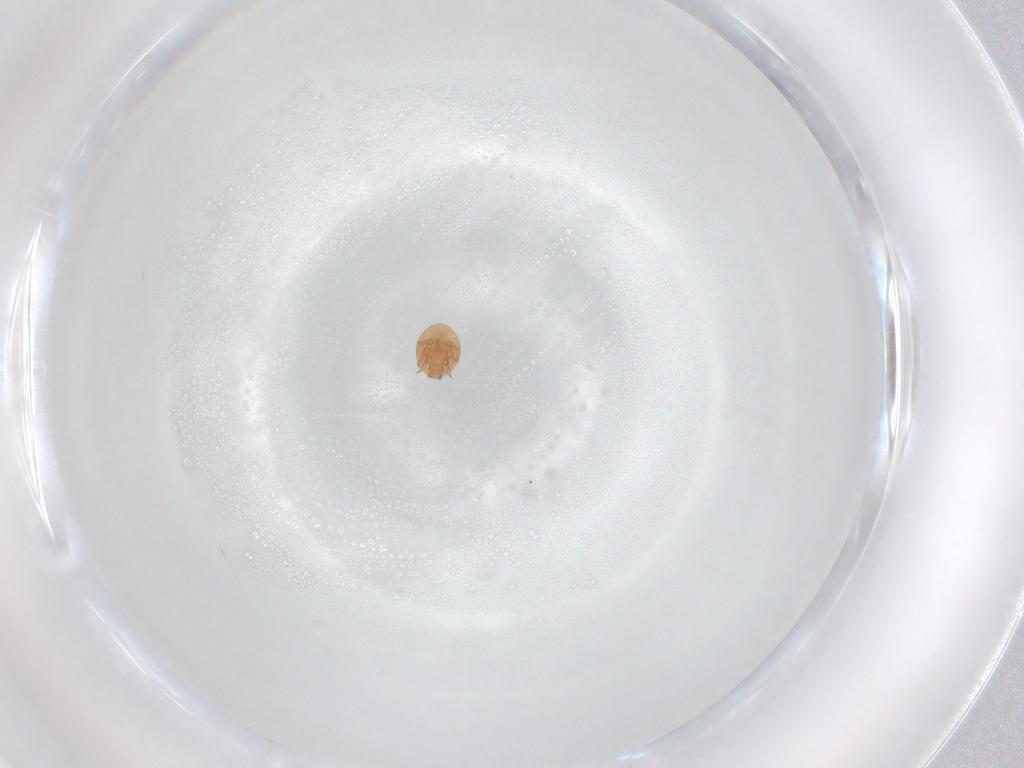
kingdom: Animalia
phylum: Arthropoda
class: Arachnida
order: Mesostigmata
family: Trematuridae
